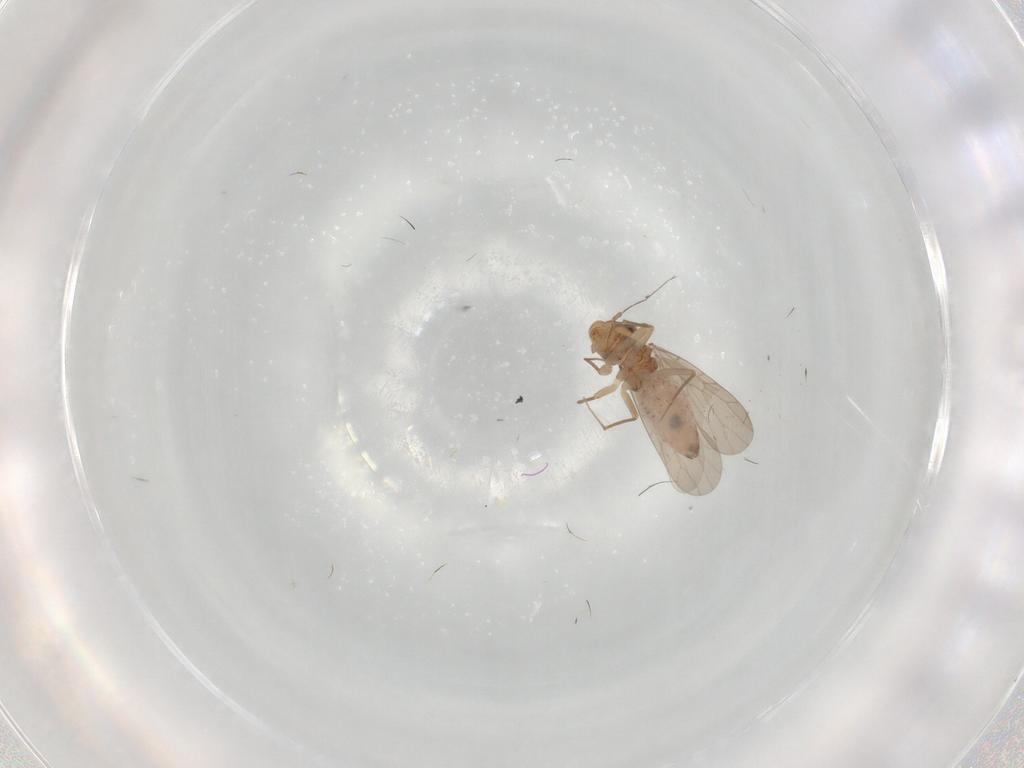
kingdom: Animalia
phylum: Arthropoda
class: Insecta
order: Psocodea
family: Lepidopsocidae
